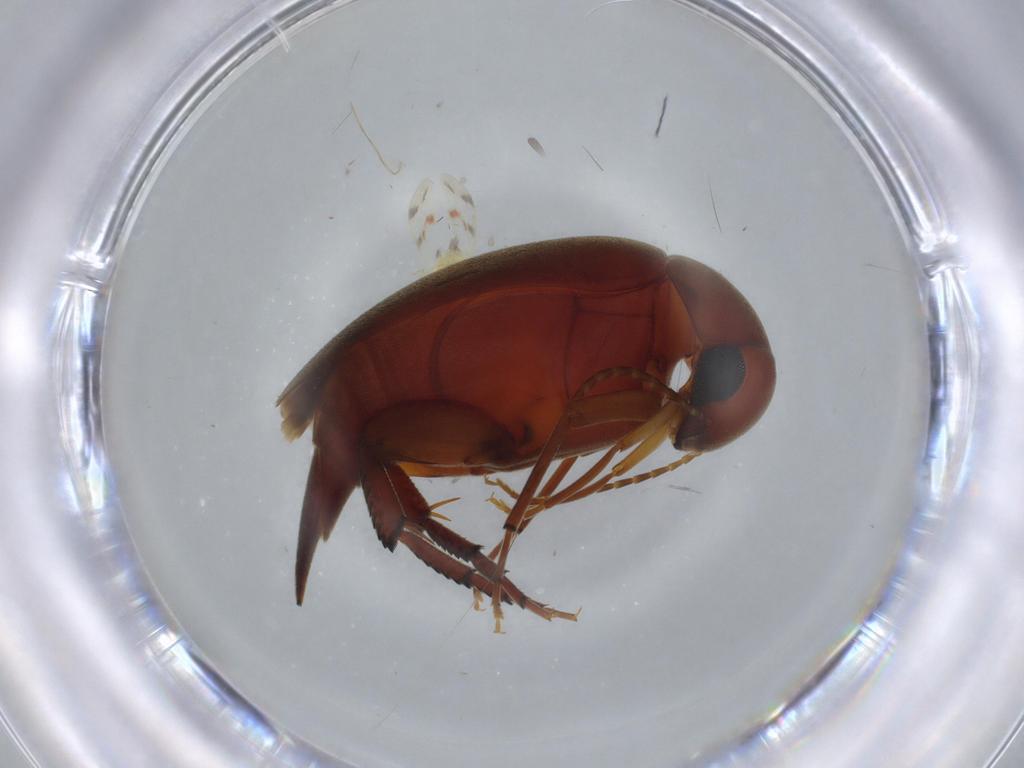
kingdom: Animalia
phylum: Arthropoda
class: Insecta
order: Hemiptera
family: Aleyrodidae
